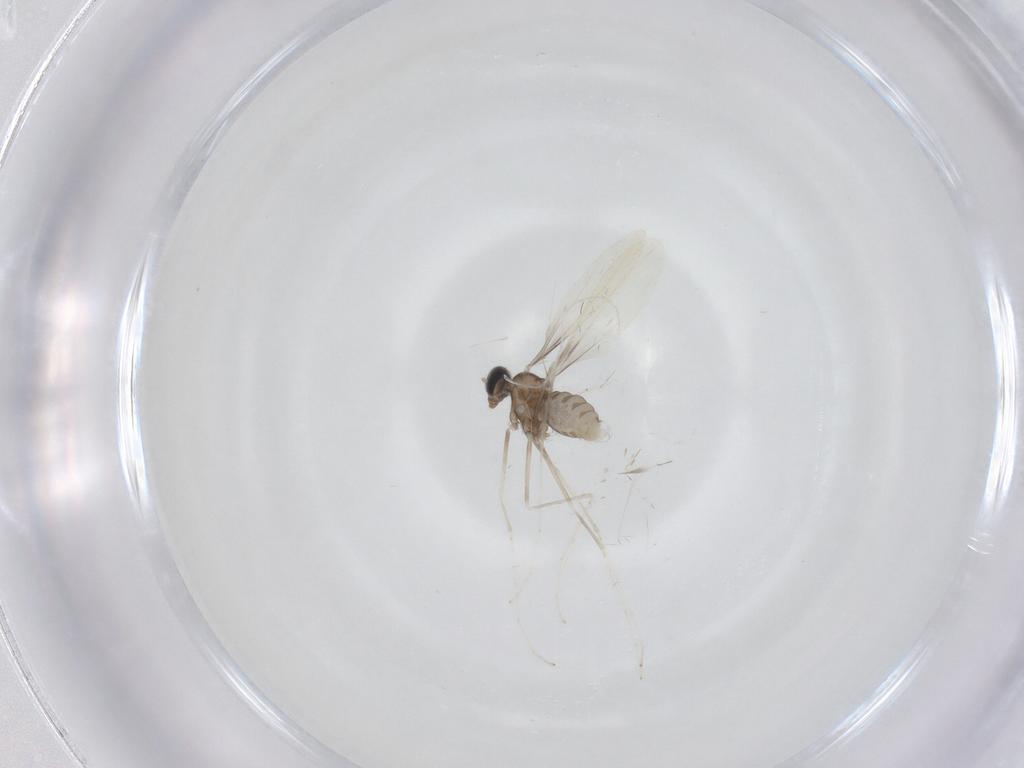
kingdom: Animalia
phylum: Arthropoda
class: Insecta
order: Diptera
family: Cecidomyiidae
